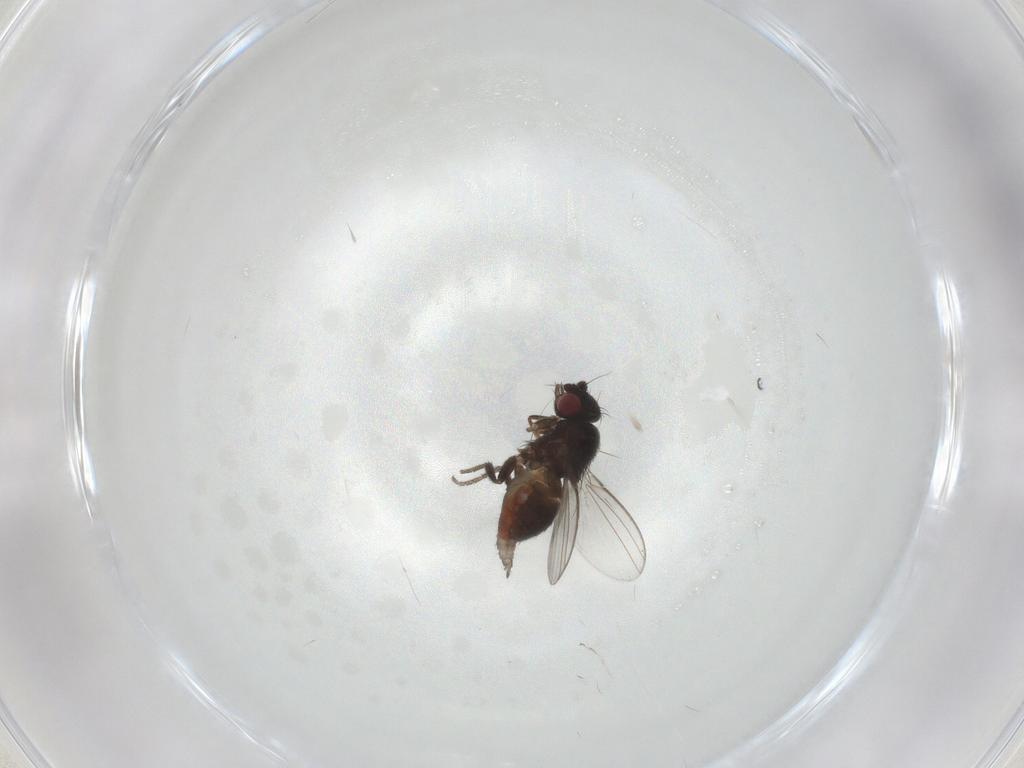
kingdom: Animalia
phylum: Arthropoda
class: Insecta
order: Diptera
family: Milichiidae
